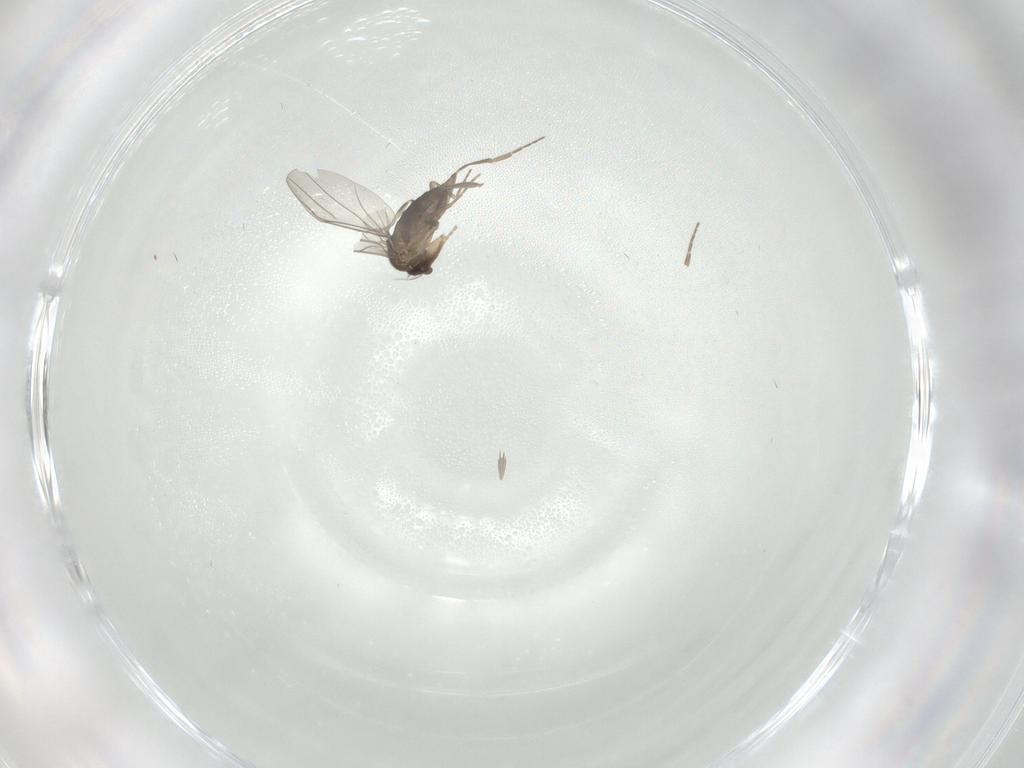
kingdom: Animalia
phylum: Arthropoda
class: Insecta
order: Diptera
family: Phoridae
